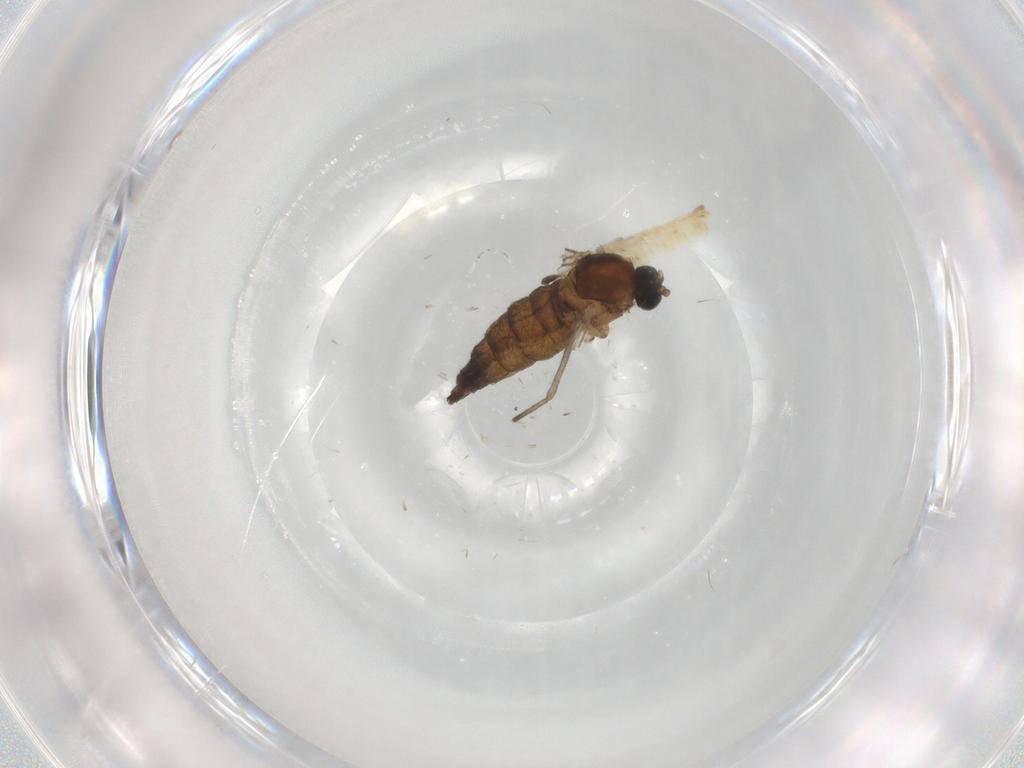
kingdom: Animalia
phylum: Arthropoda
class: Insecta
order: Diptera
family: Sciaridae
